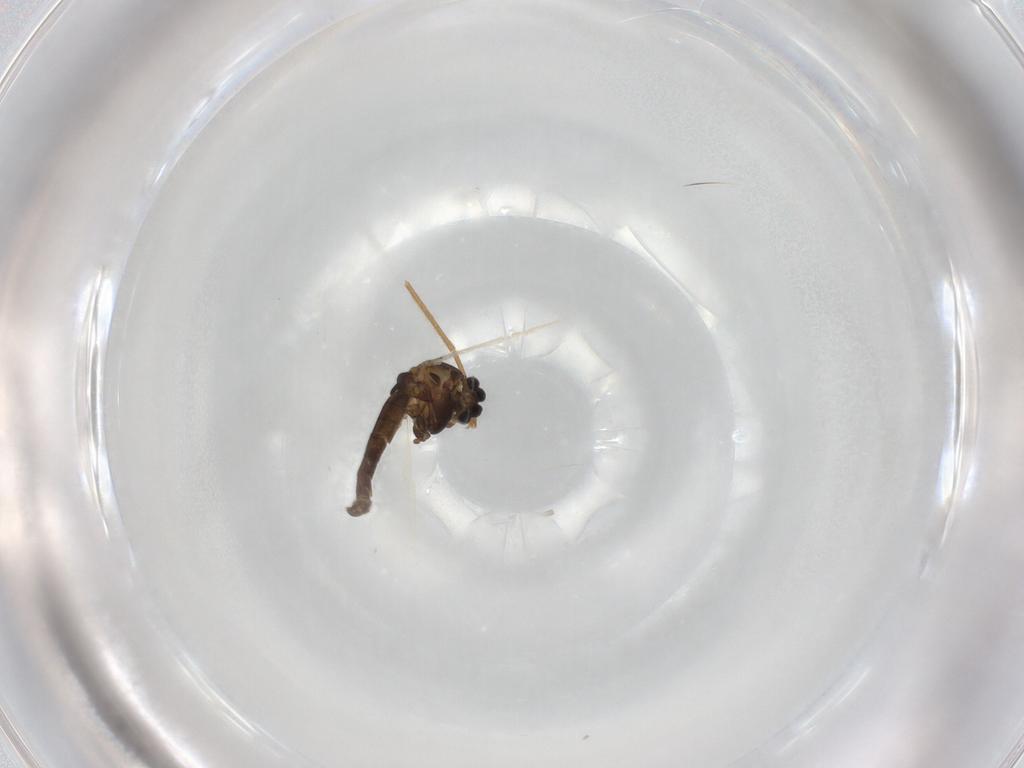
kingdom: Animalia
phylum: Arthropoda
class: Insecta
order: Diptera
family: Chironomidae
